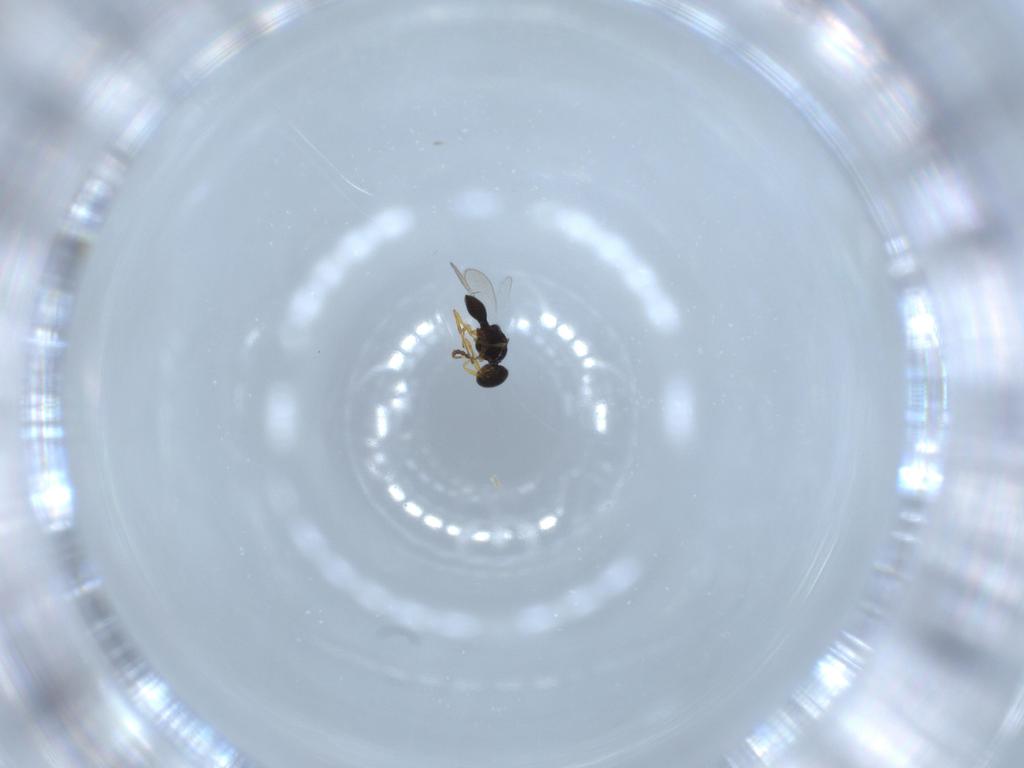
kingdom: Animalia
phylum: Arthropoda
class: Insecta
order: Hymenoptera
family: Platygastridae
